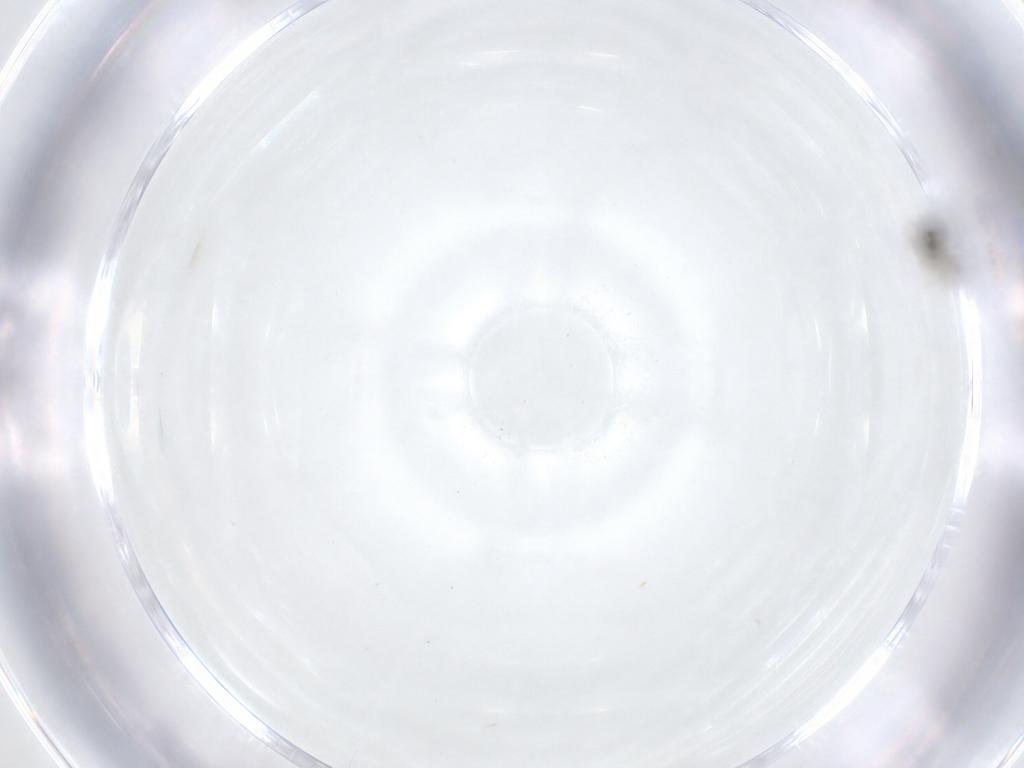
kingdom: Animalia
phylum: Arthropoda
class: Insecta
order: Diptera
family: Chironomidae
